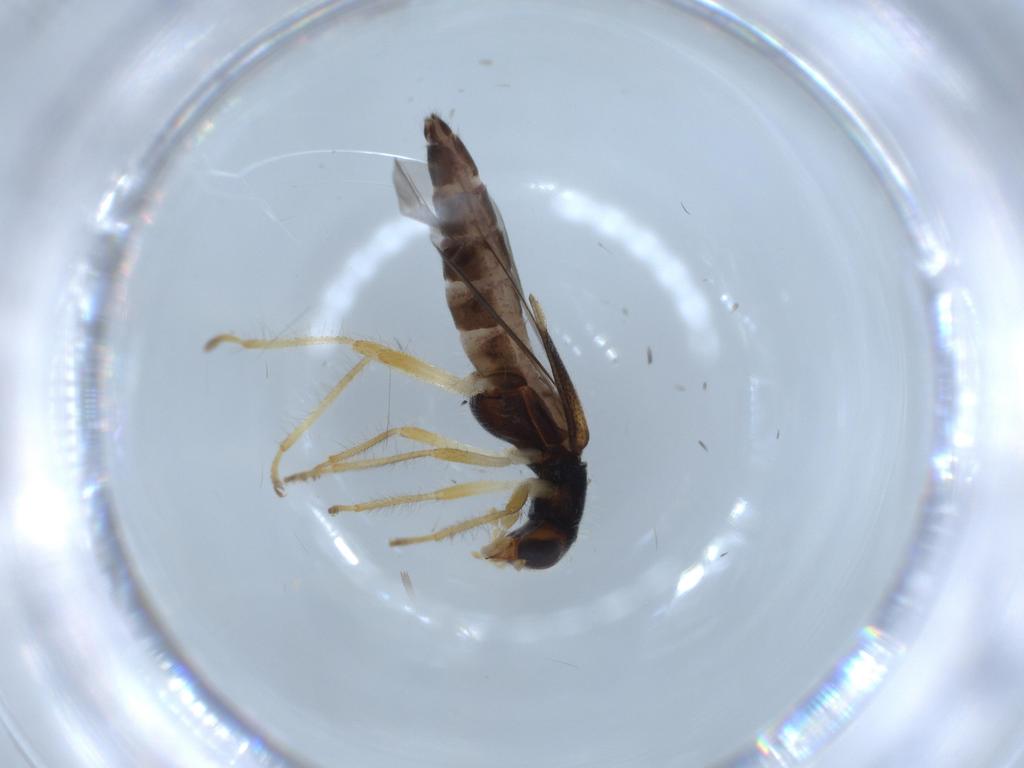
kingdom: Animalia
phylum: Arthropoda
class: Insecta
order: Coleoptera
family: Cleridae
